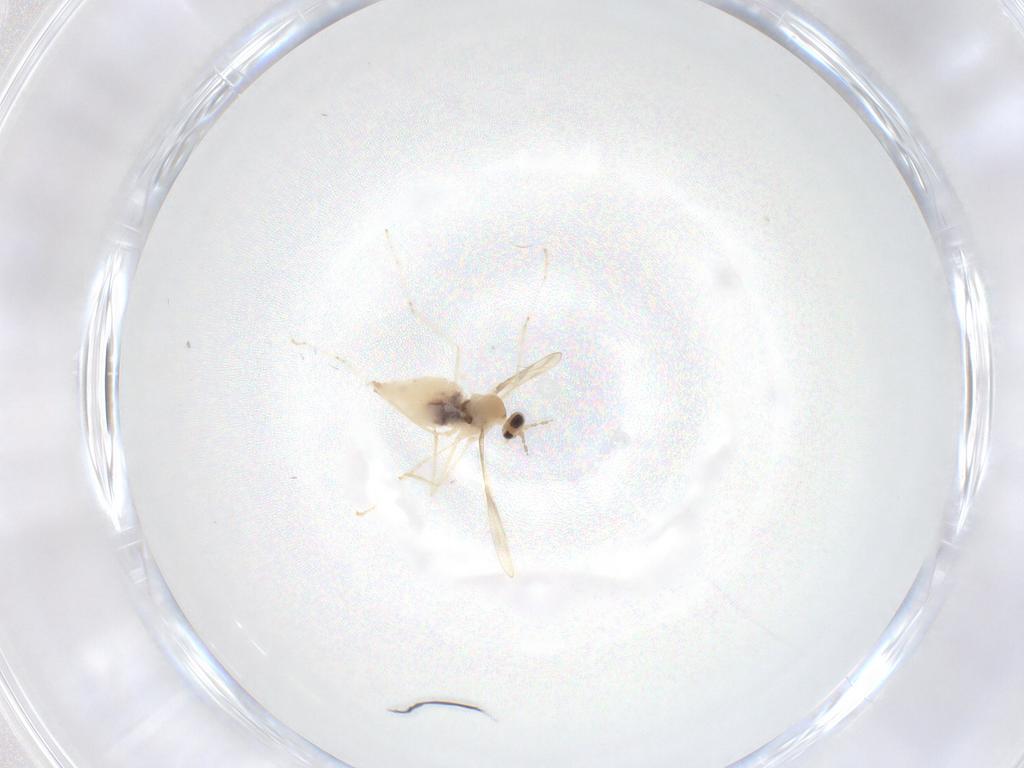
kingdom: Animalia
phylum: Arthropoda
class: Insecta
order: Diptera
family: Cecidomyiidae
